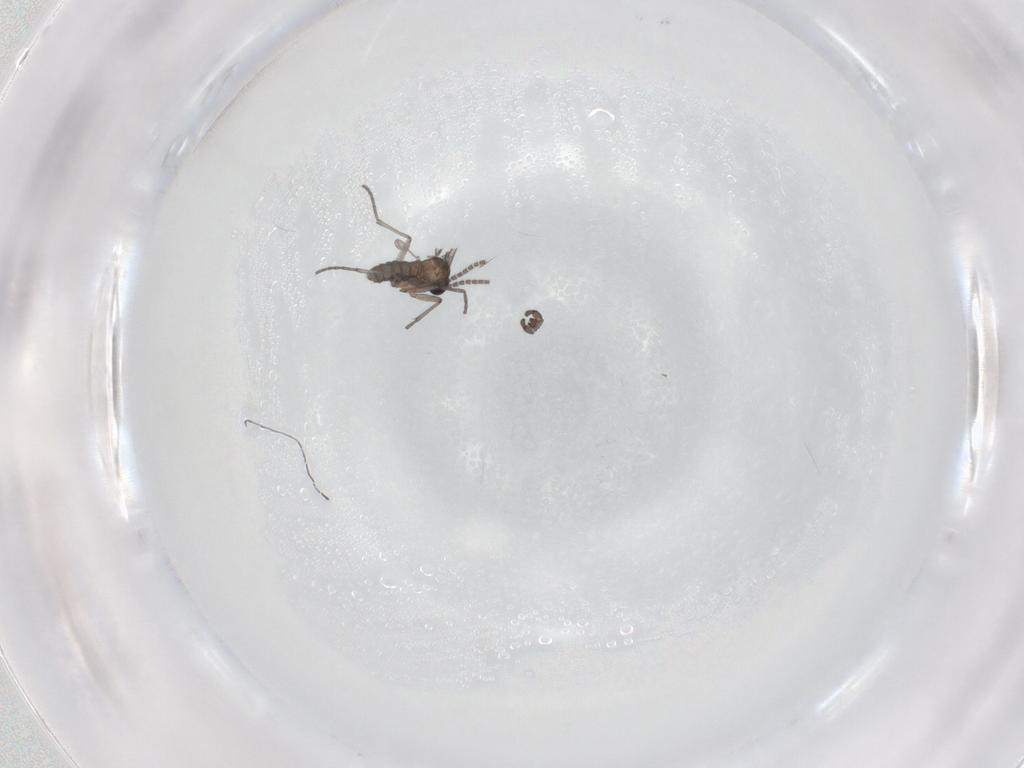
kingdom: Animalia
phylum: Arthropoda
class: Insecta
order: Diptera
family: Sciaridae
